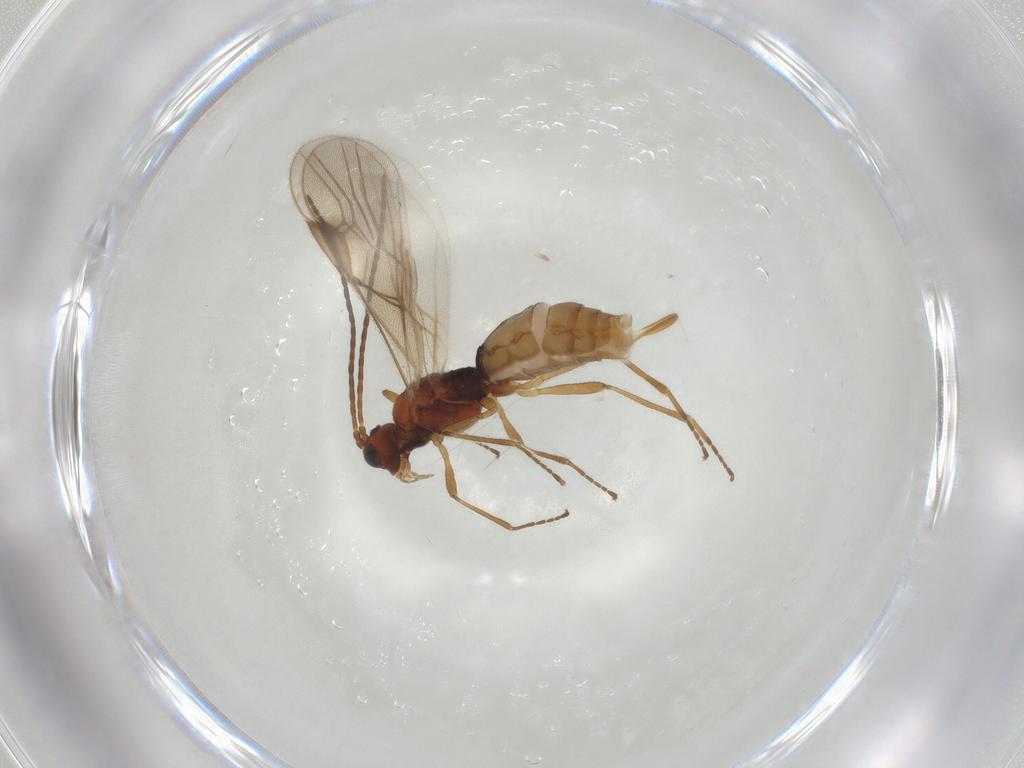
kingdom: Animalia
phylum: Arthropoda
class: Insecta
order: Hymenoptera
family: Braconidae
